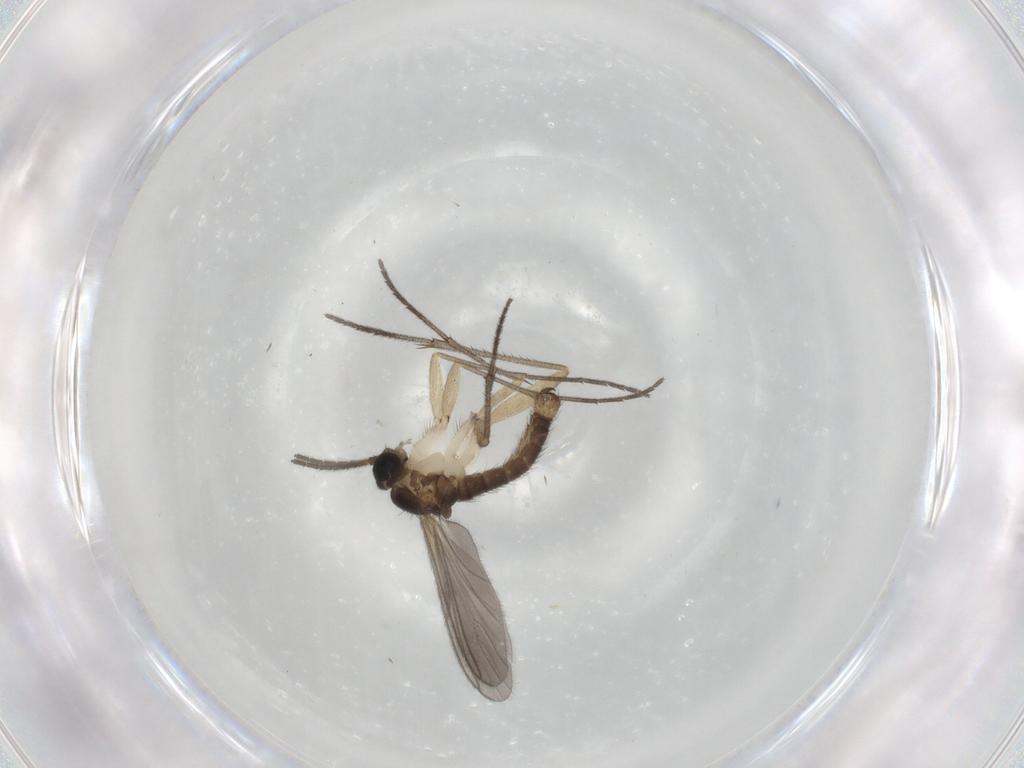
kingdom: Animalia
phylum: Arthropoda
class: Insecta
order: Diptera
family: Sciaridae
